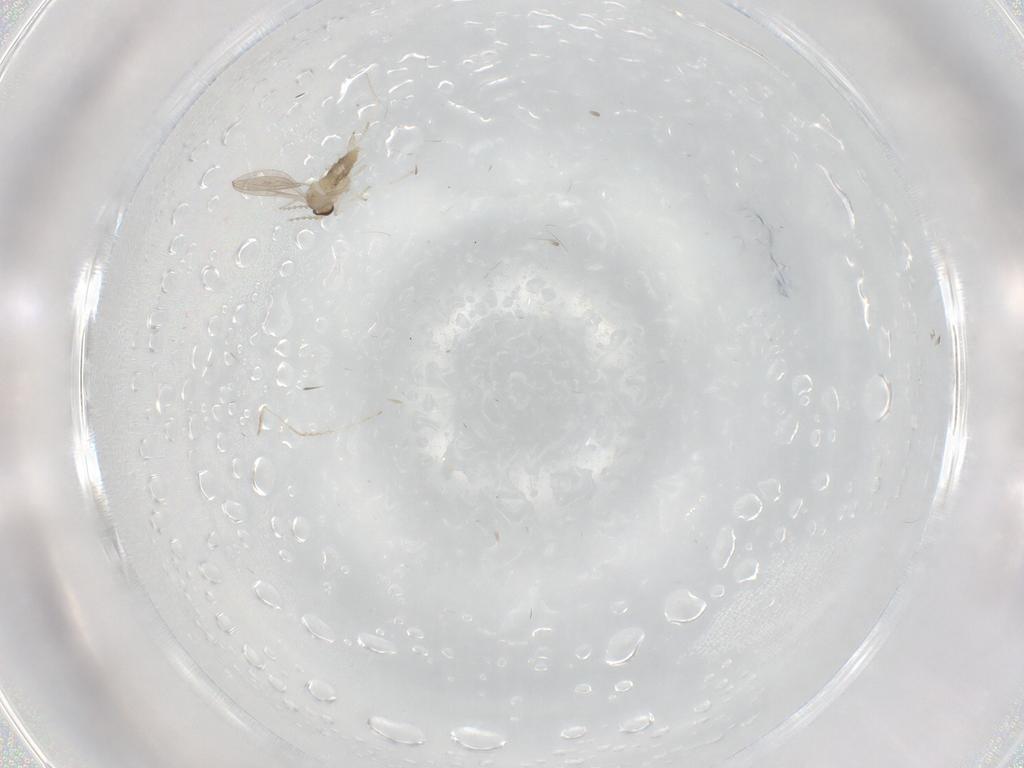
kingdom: Animalia
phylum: Arthropoda
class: Insecta
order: Diptera
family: Ceratopogonidae
